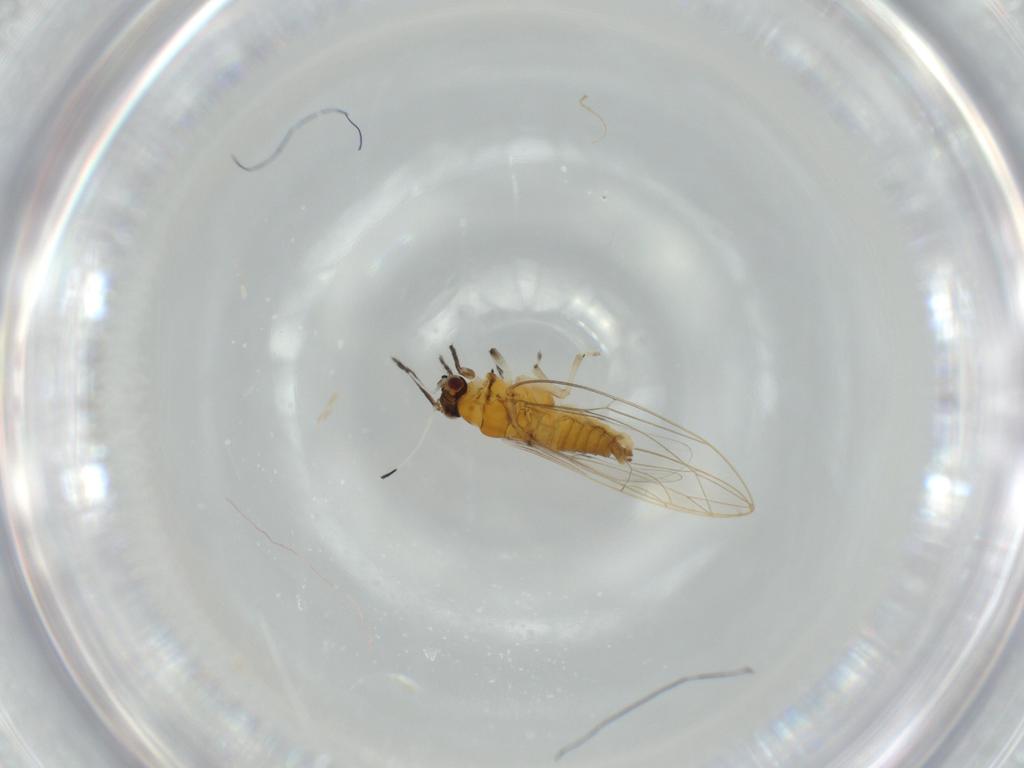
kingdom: Animalia
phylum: Arthropoda
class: Insecta
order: Hemiptera
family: Triozidae
